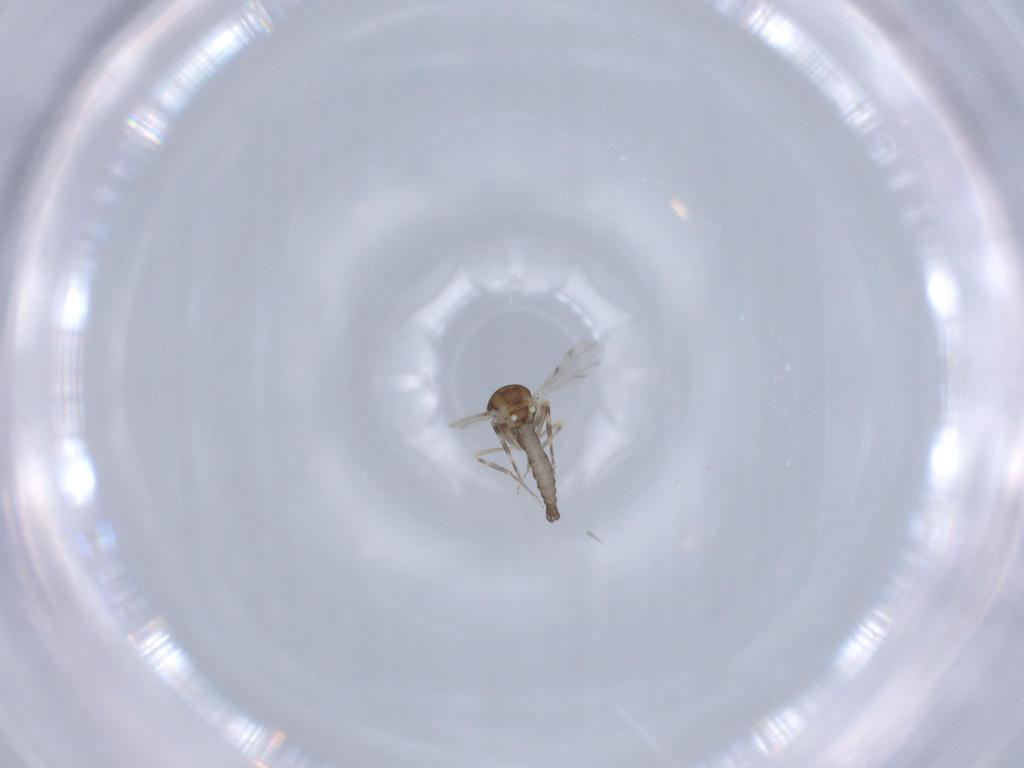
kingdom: Animalia
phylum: Arthropoda
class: Insecta
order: Diptera
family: Ceratopogonidae
